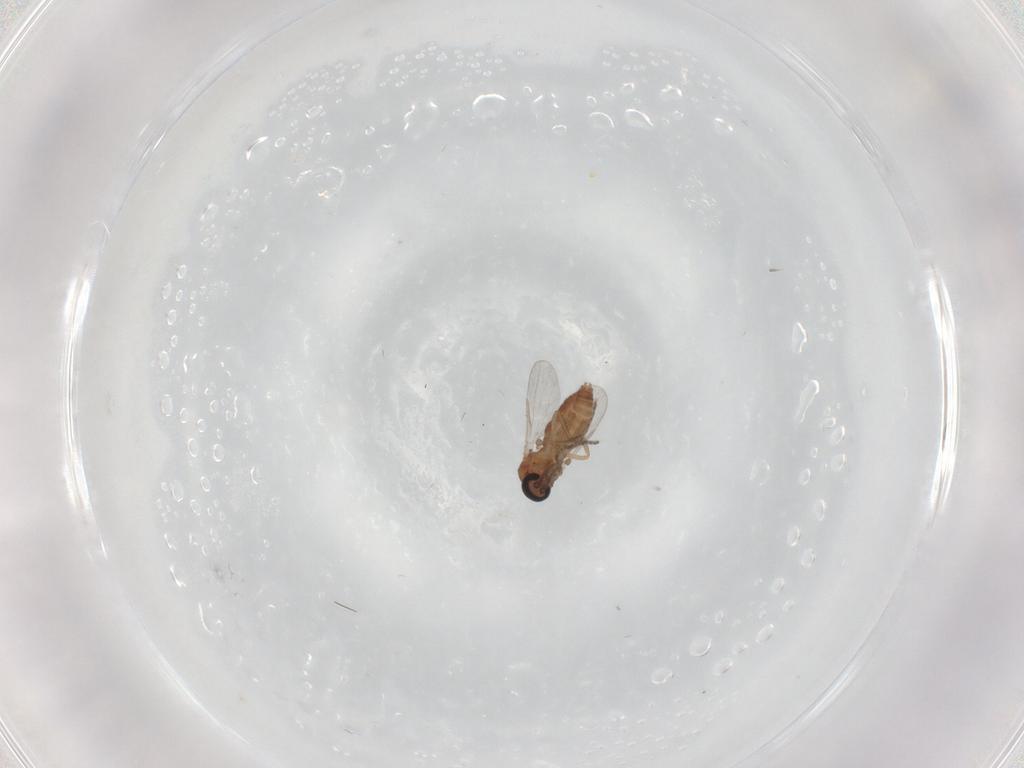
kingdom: Animalia
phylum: Arthropoda
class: Insecta
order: Diptera
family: Ceratopogonidae
